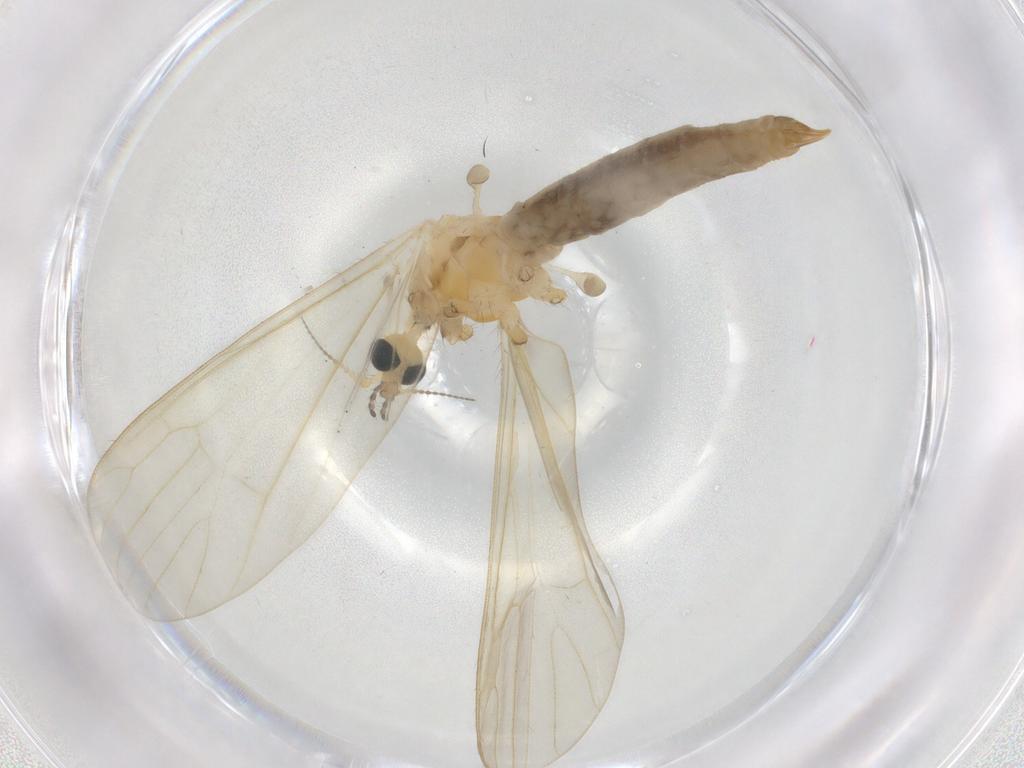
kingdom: Animalia
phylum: Arthropoda
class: Insecta
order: Diptera
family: Limoniidae
